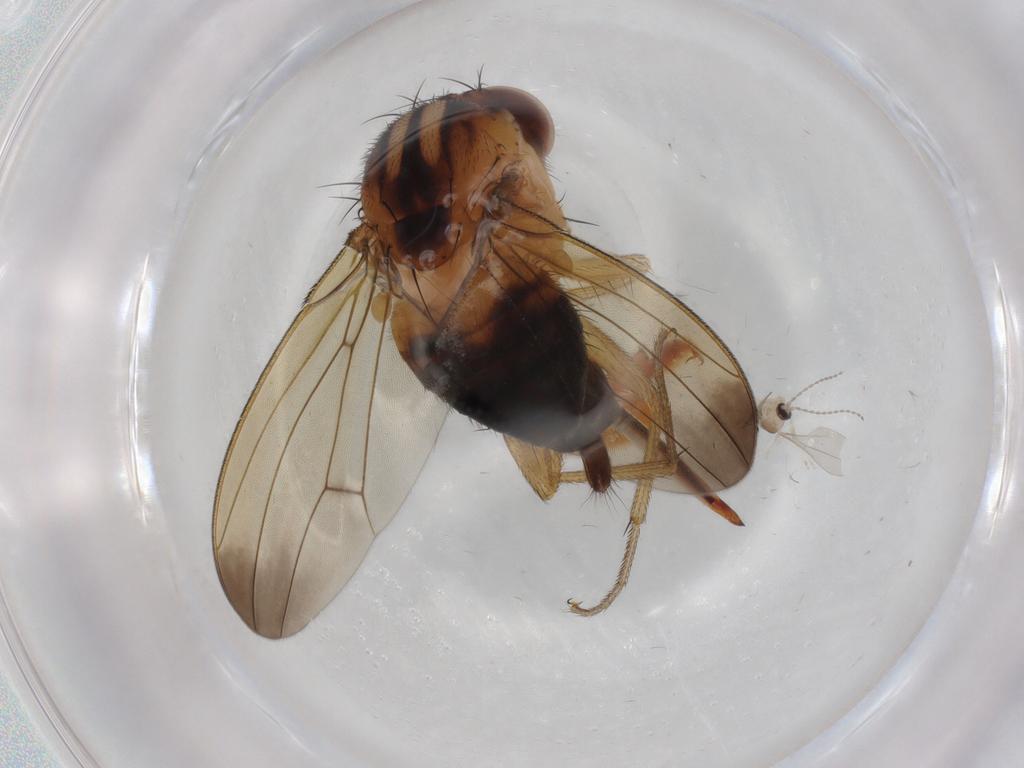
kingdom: Animalia
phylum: Arthropoda
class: Insecta
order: Diptera
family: Drosophilidae
